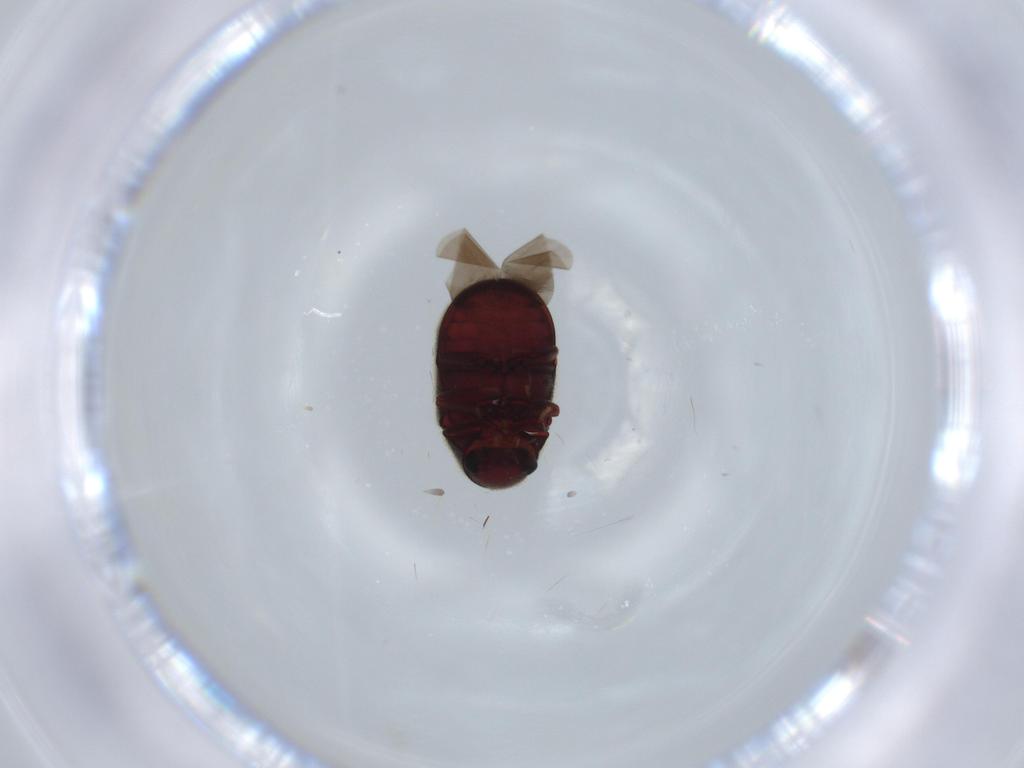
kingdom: Animalia
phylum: Arthropoda
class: Insecta
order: Coleoptera
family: Ptinidae
